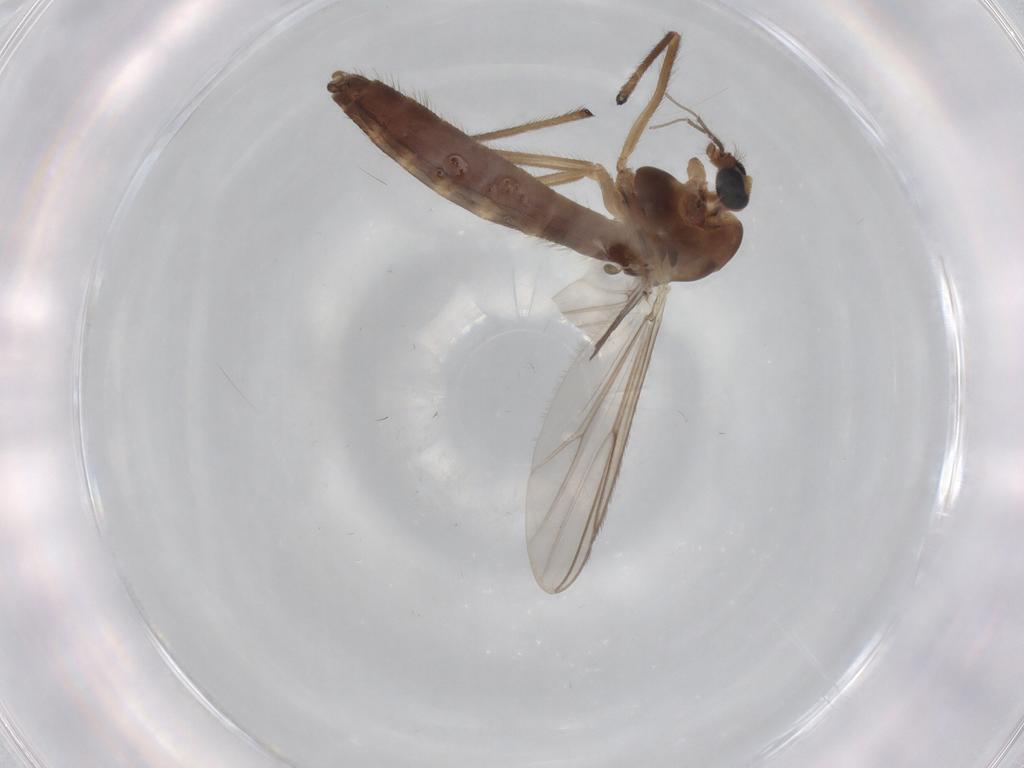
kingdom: Animalia
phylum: Arthropoda
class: Insecta
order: Diptera
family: Chironomidae
